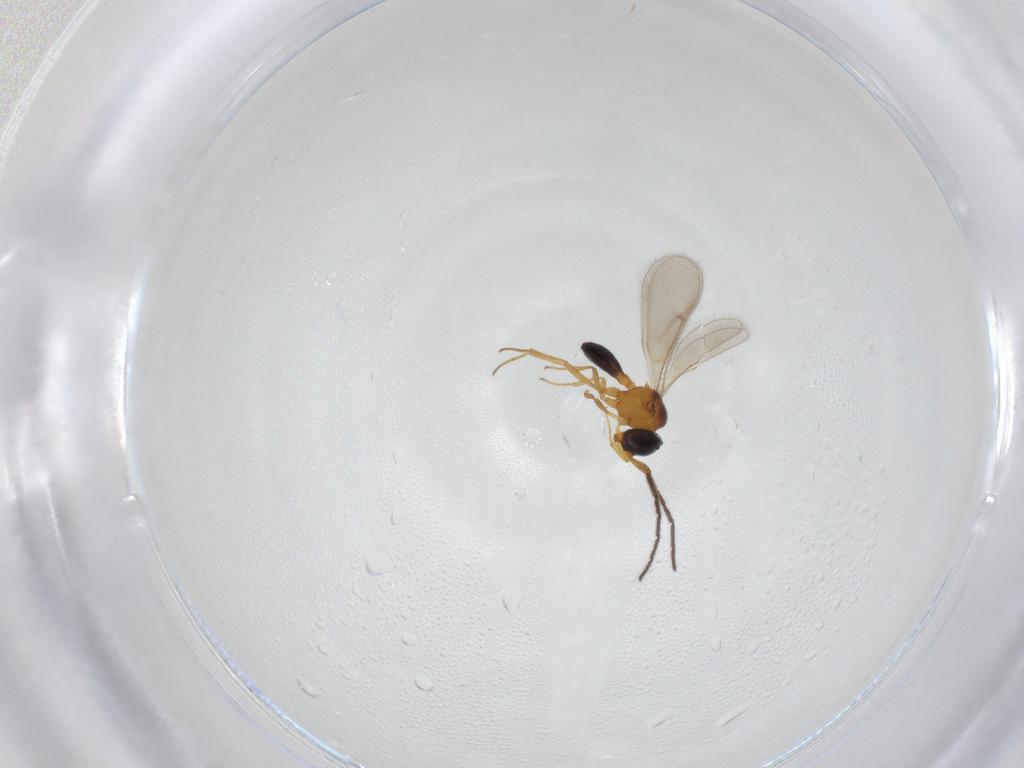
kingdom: Animalia
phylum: Arthropoda
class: Insecta
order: Hymenoptera
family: Scelionidae
